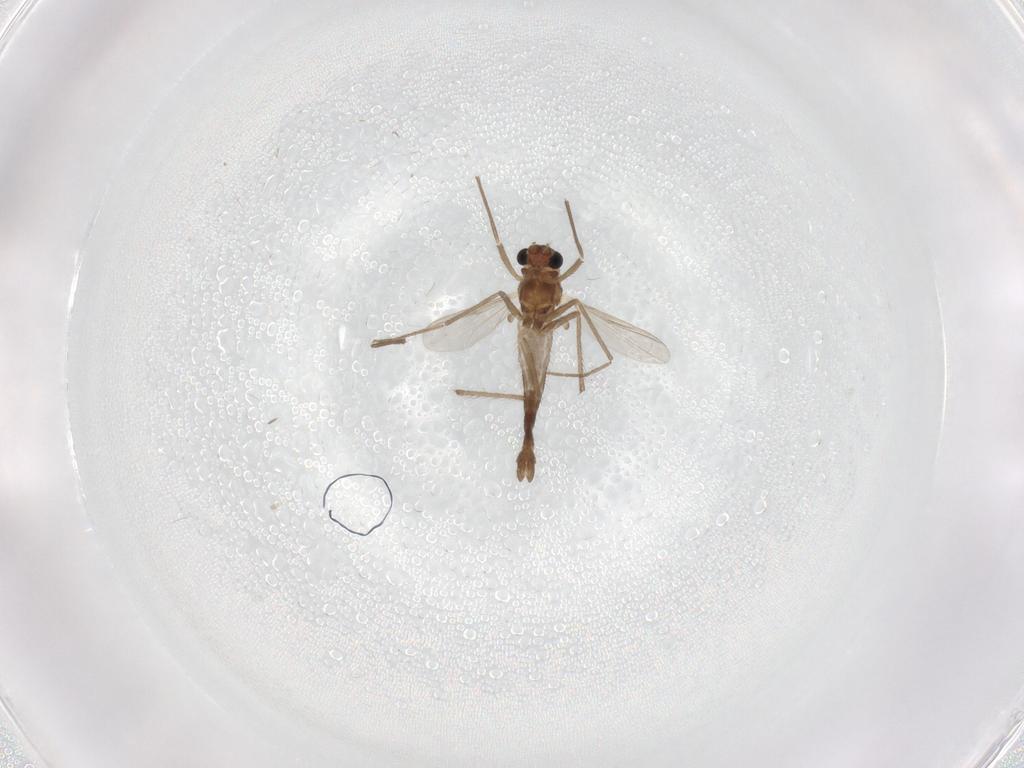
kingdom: Animalia
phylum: Arthropoda
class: Insecta
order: Diptera
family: Chironomidae
